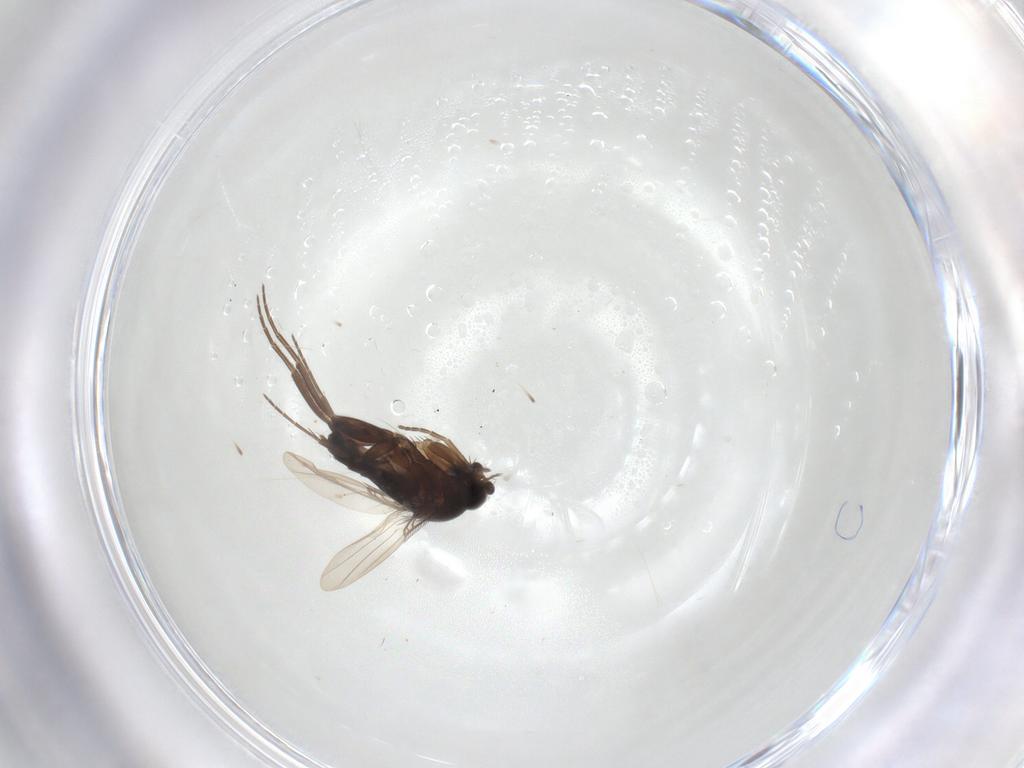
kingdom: Animalia
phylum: Arthropoda
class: Insecta
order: Diptera
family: Phoridae
